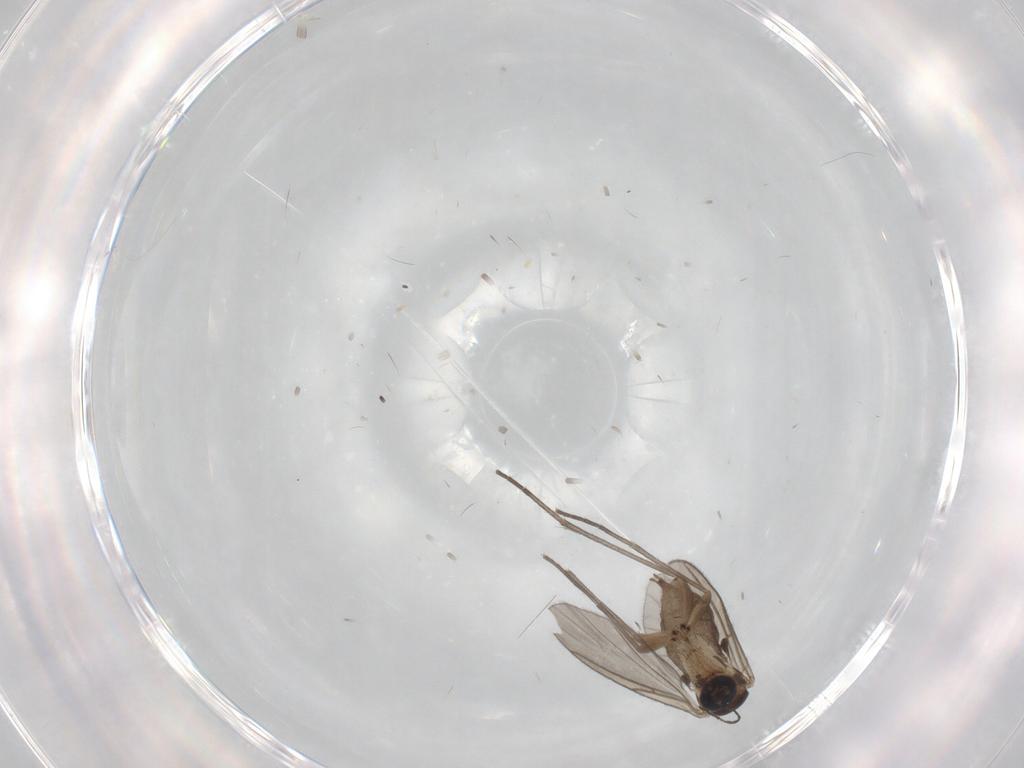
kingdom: Animalia
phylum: Arthropoda
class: Insecta
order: Diptera
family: Sciaridae
